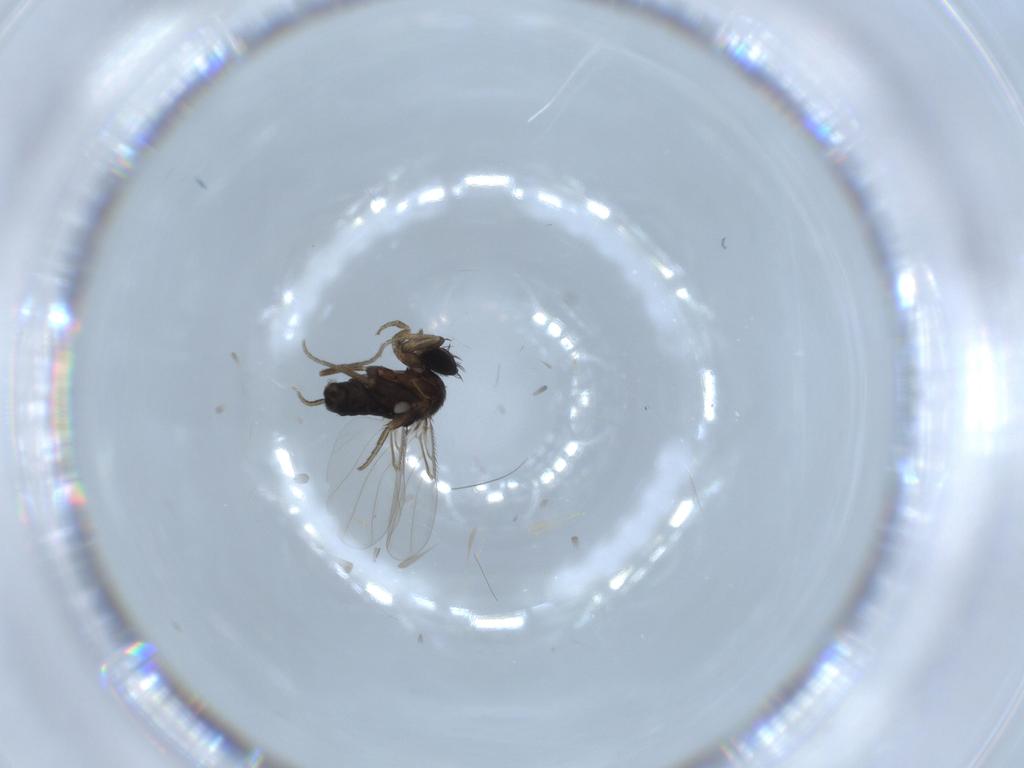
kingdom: Animalia
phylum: Arthropoda
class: Insecta
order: Diptera
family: Phoridae
